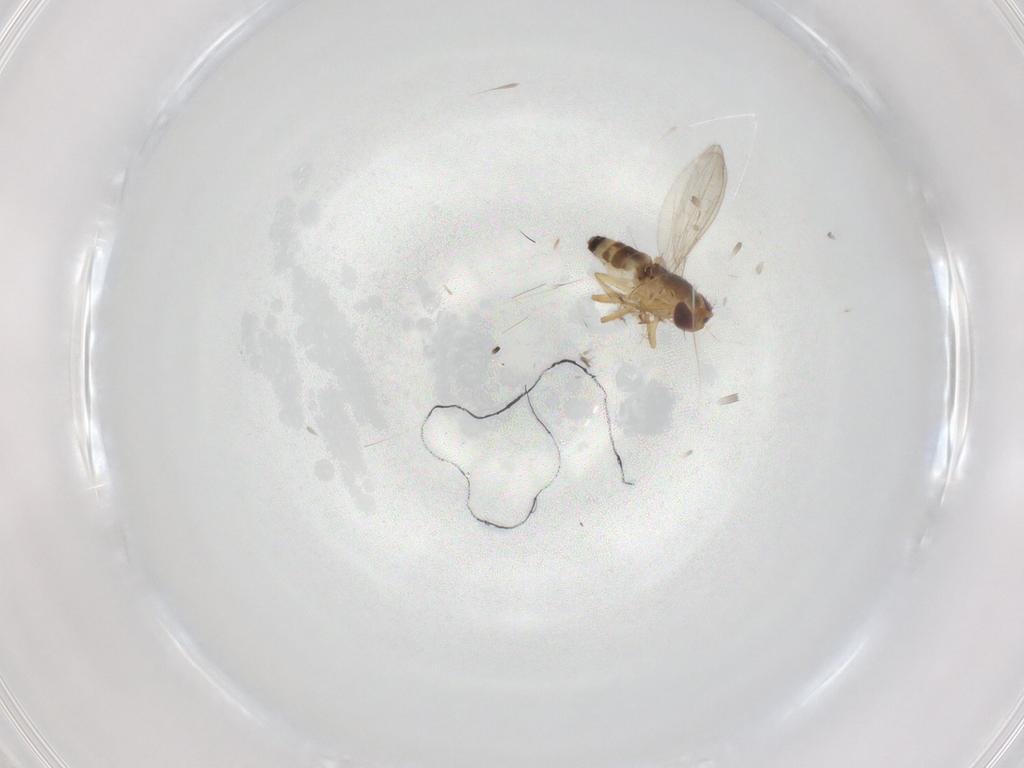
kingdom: Animalia
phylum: Arthropoda
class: Insecta
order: Diptera
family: Periscelididae
